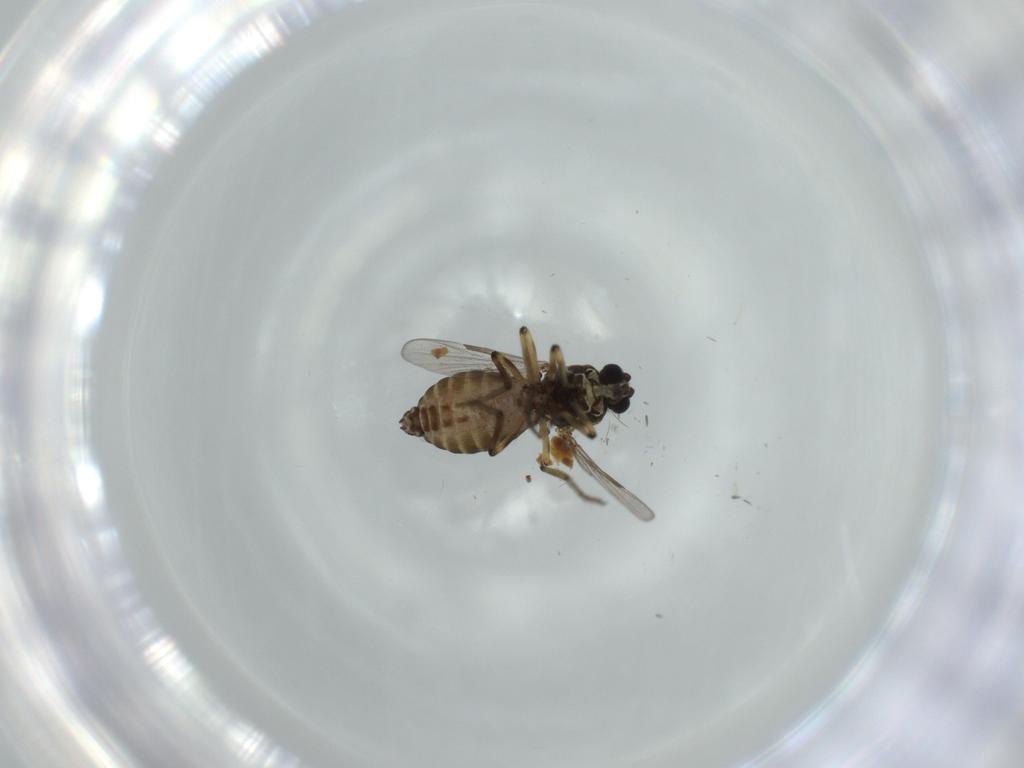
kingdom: Animalia
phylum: Arthropoda
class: Insecta
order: Diptera
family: Ceratopogonidae
